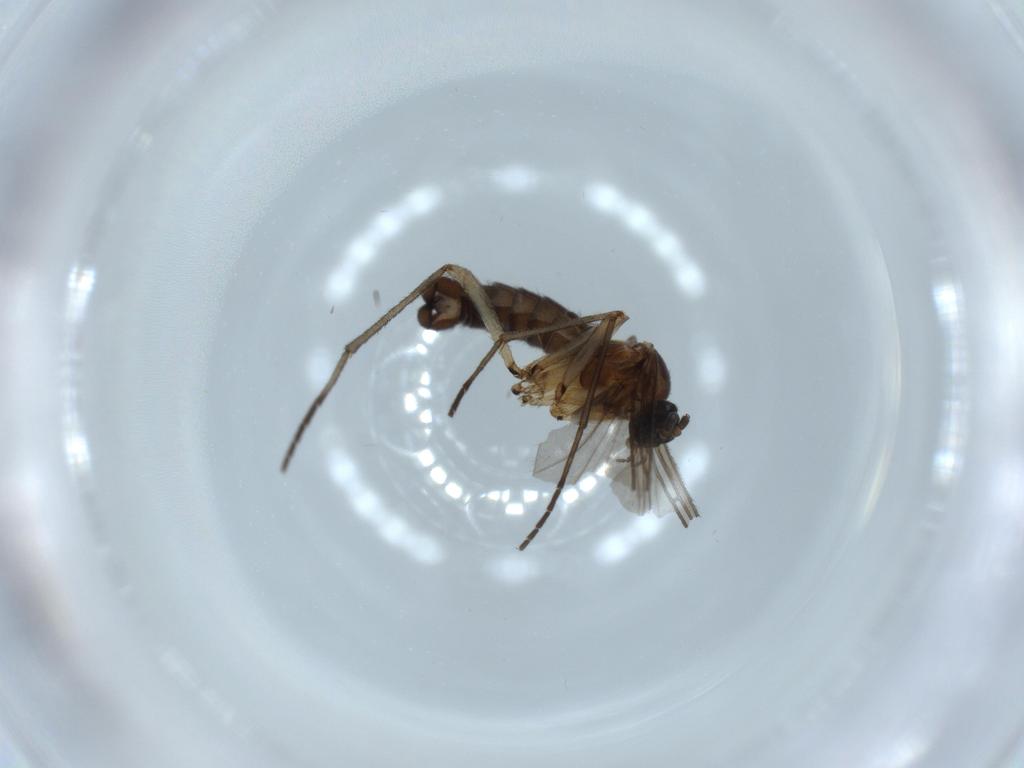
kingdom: Animalia
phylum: Arthropoda
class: Insecta
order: Diptera
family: Sciaridae
